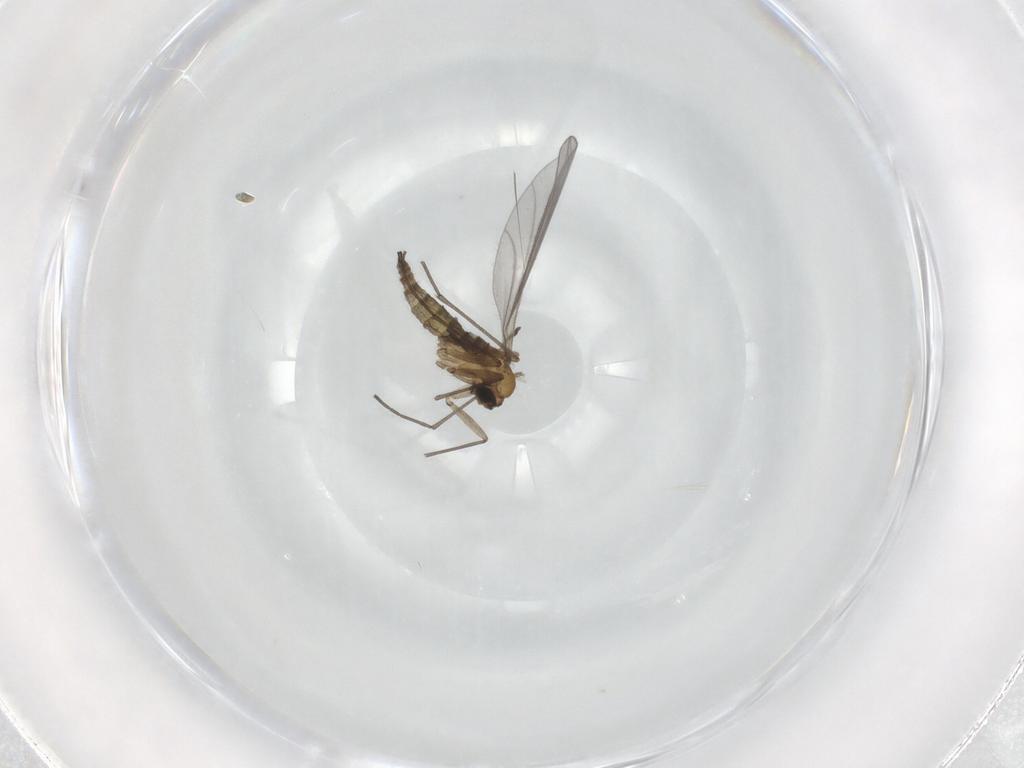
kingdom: Animalia
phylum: Arthropoda
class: Insecta
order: Diptera
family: Sciaridae
